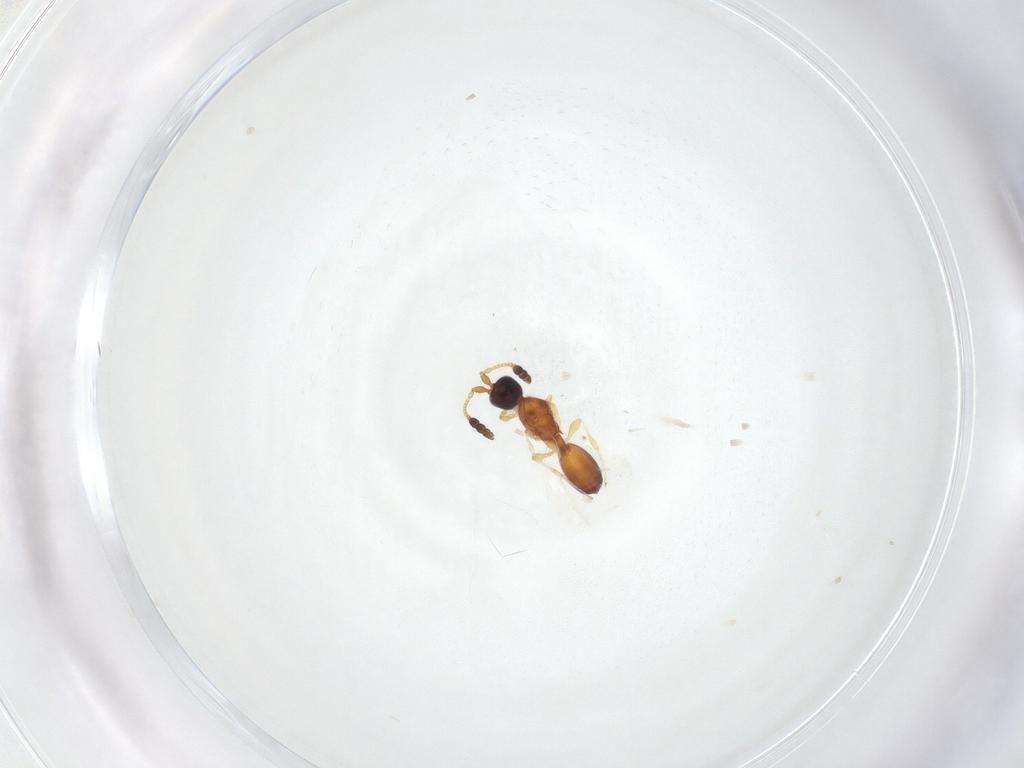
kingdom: Animalia
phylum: Arthropoda
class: Insecta
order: Hymenoptera
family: Diapriidae
